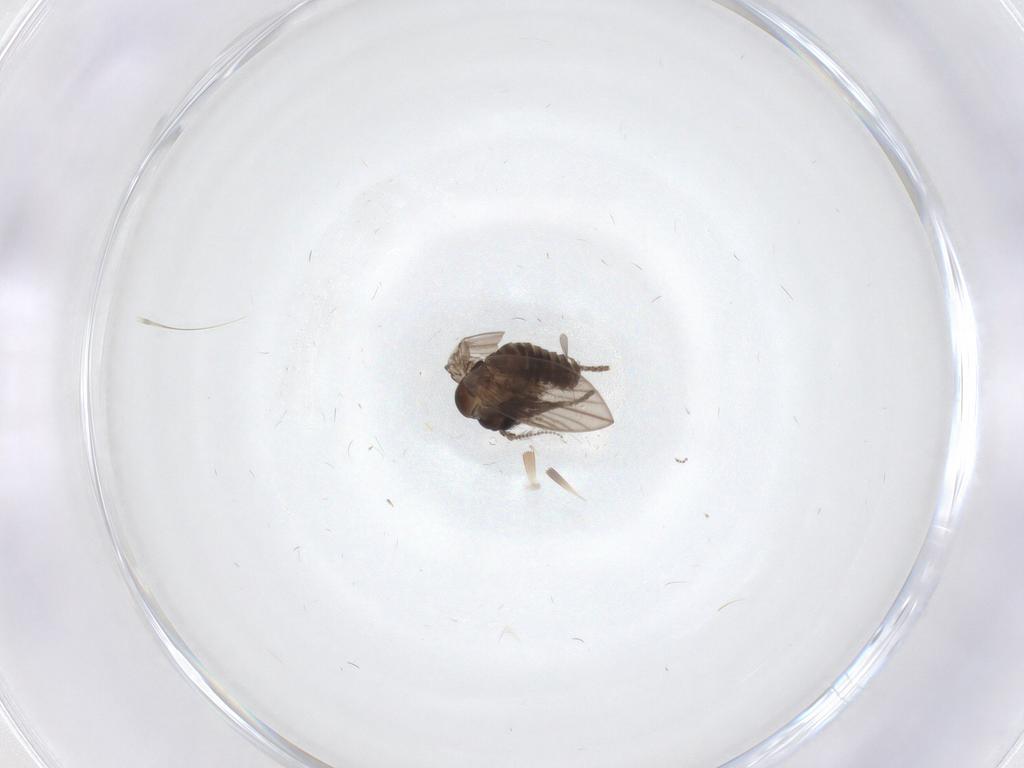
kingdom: Animalia
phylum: Arthropoda
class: Insecta
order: Diptera
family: Psychodidae
